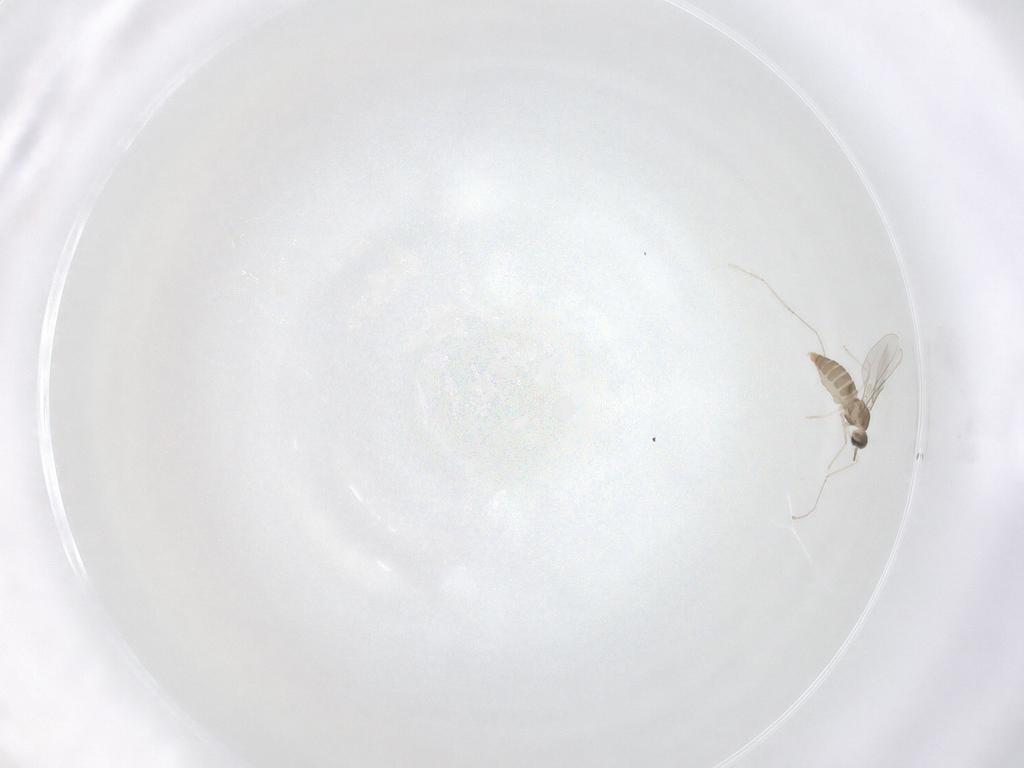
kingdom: Animalia
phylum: Arthropoda
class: Insecta
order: Diptera
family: Cecidomyiidae
